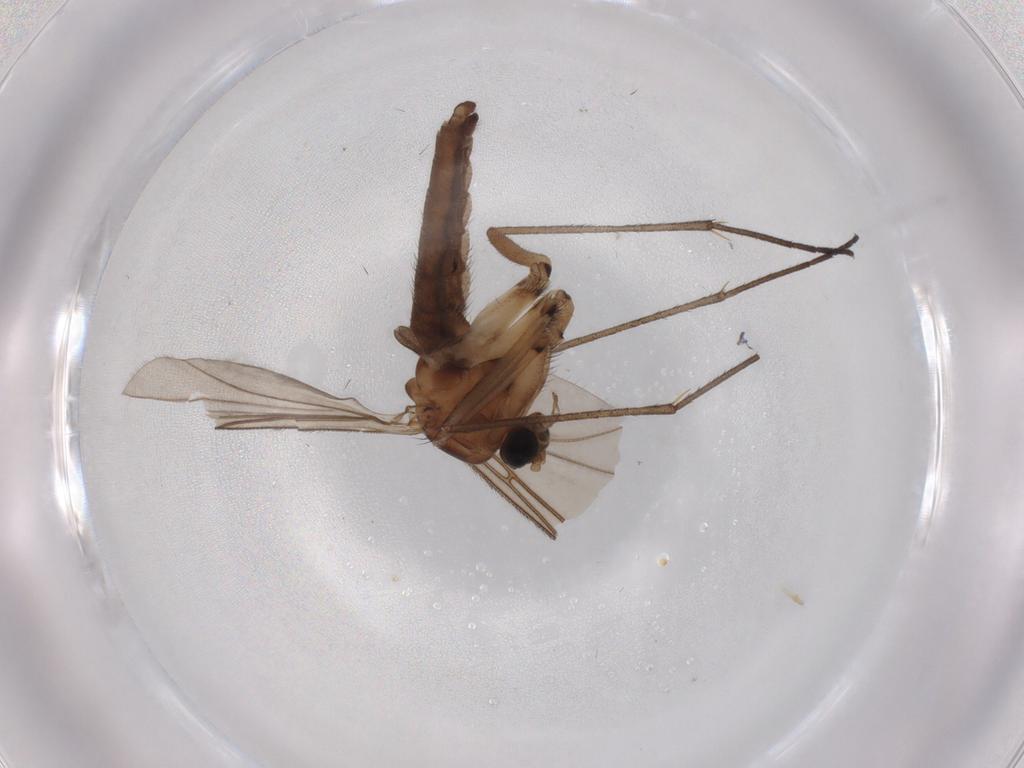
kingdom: Animalia
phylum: Arthropoda
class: Insecta
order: Diptera
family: Mycetophilidae
